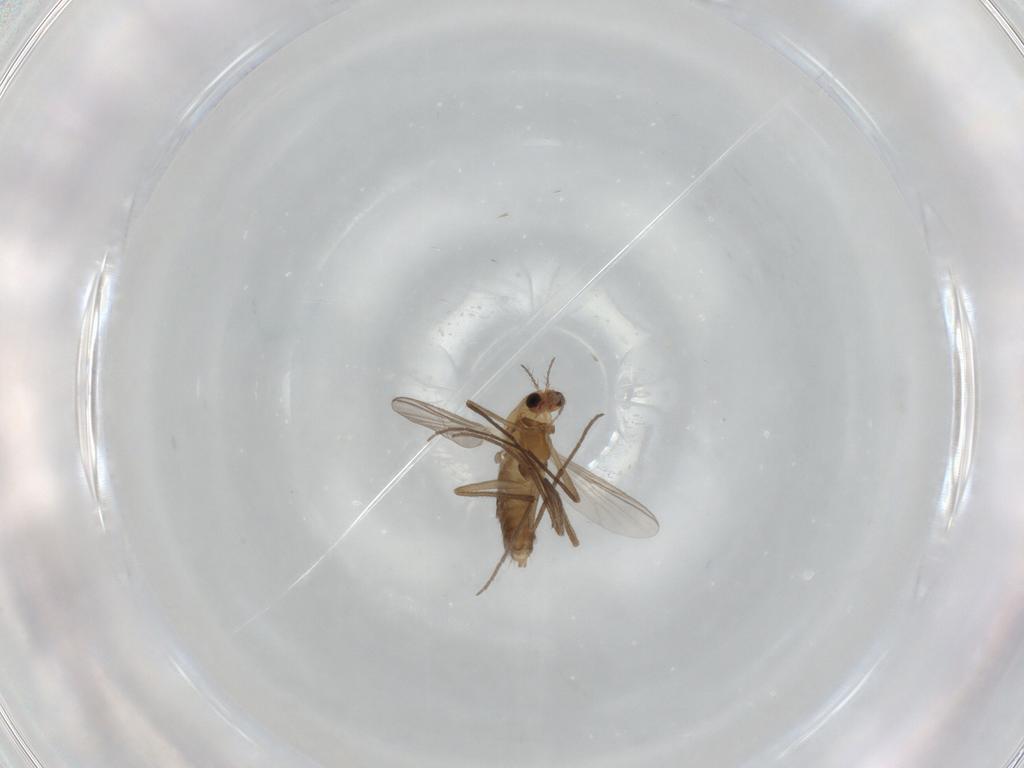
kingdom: Animalia
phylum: Arthropoda
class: Insecta
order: Diptera
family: Chironomidae
